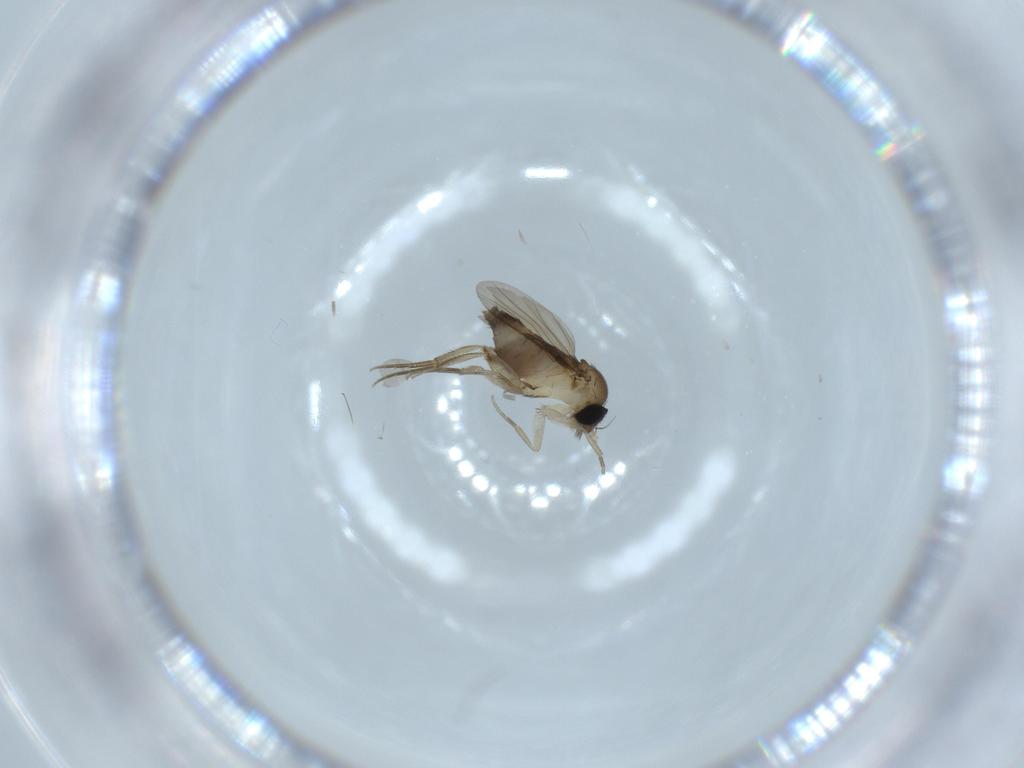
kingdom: Animalia
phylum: Arthropoda
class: Insecta
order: Diptera
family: Phoridae
